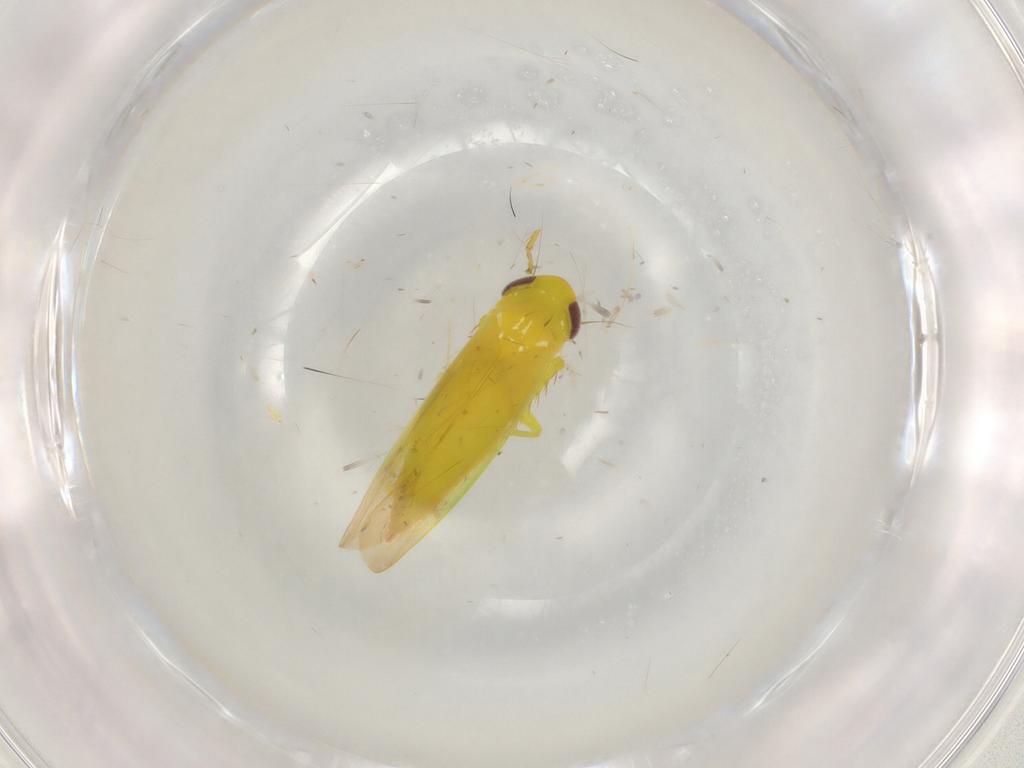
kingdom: Animalia
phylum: Arthropoda
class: Insecta
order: Hemiptera
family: Cicadellidae
